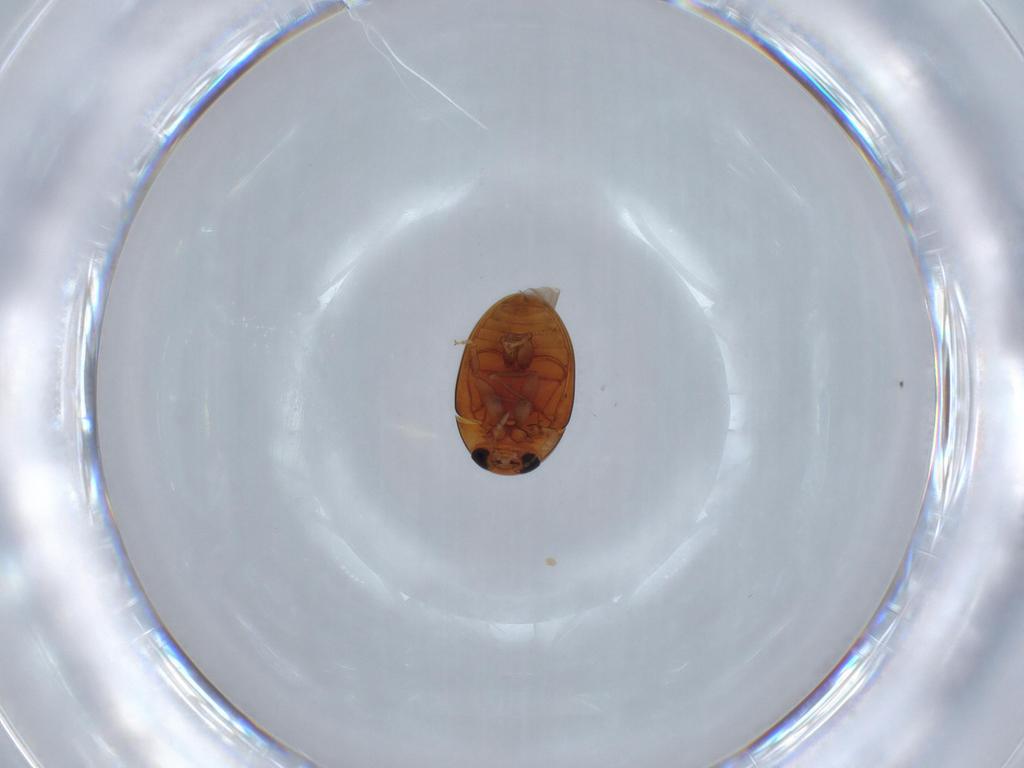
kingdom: Animalia
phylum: Arthropoda
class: Insecta
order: Coleoptera
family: Phalacridae
